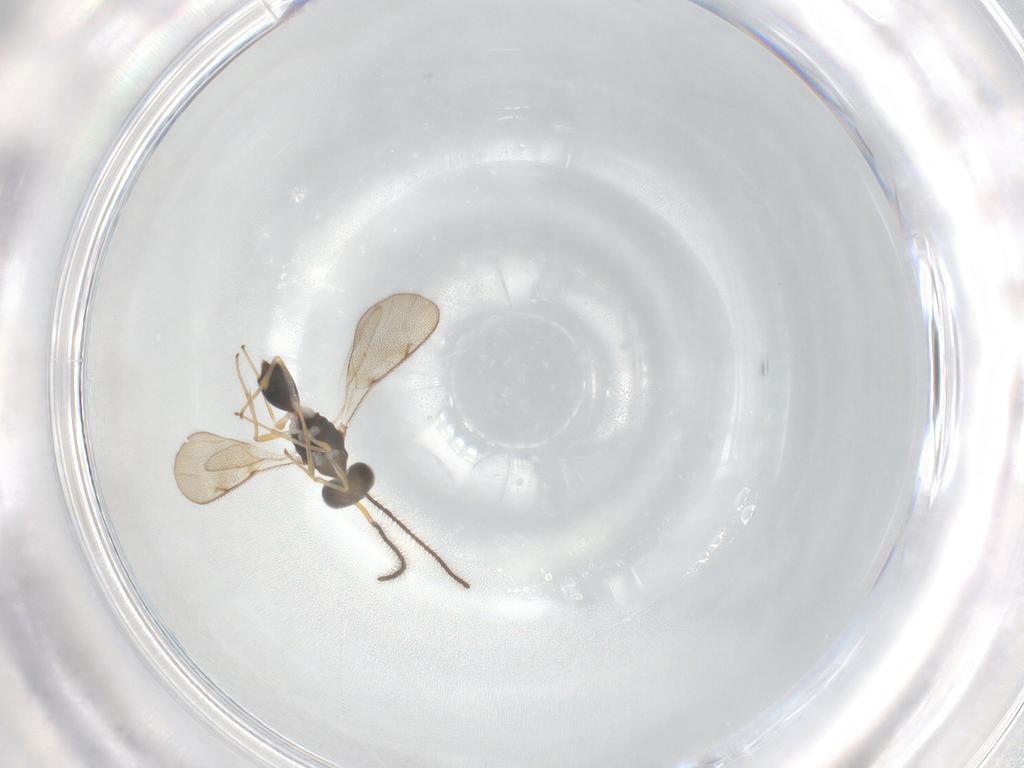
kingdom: Animalia
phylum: Arthropoda
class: Insecta
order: Hymenoptera
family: Diparidae
